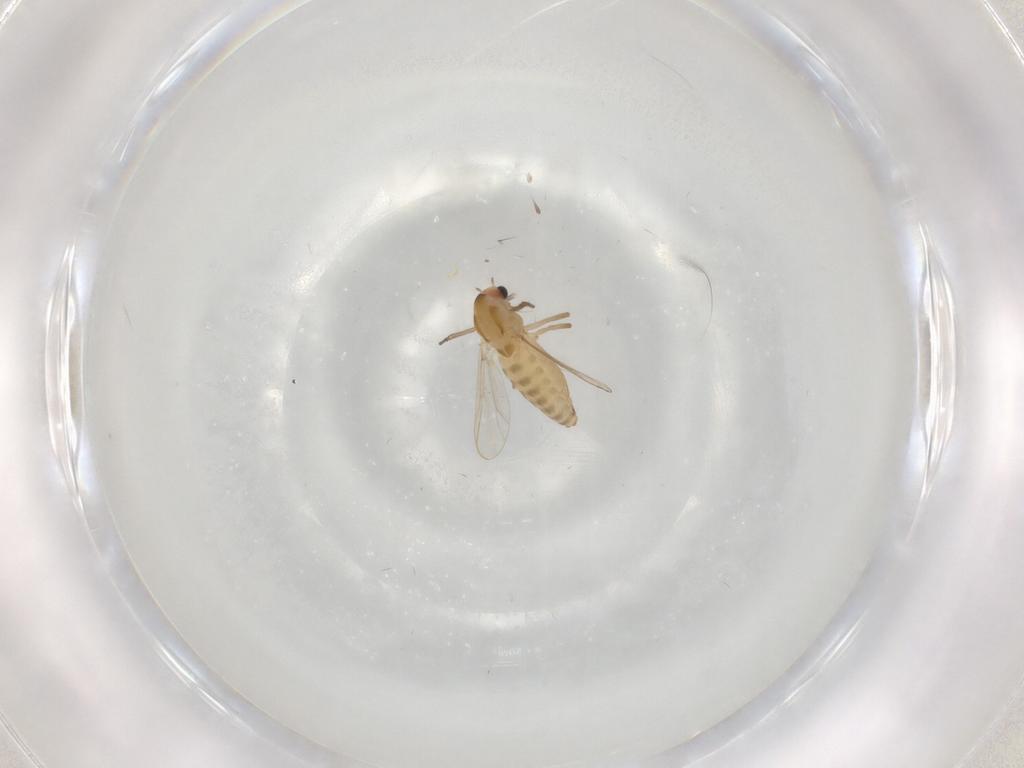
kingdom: Animalia
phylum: Arthropoda
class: Insecta
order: Diptera
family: Chironomidae
